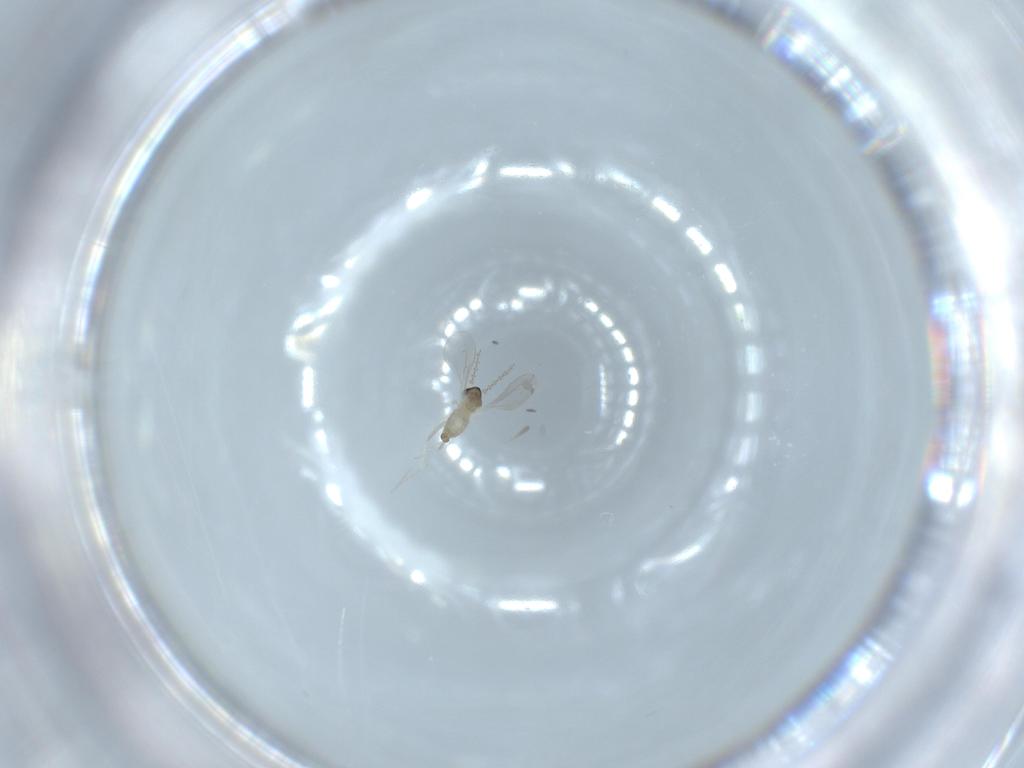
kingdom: Animalia
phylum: Arthropoda
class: Insecta
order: Diptera
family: Cecidomyiidae
